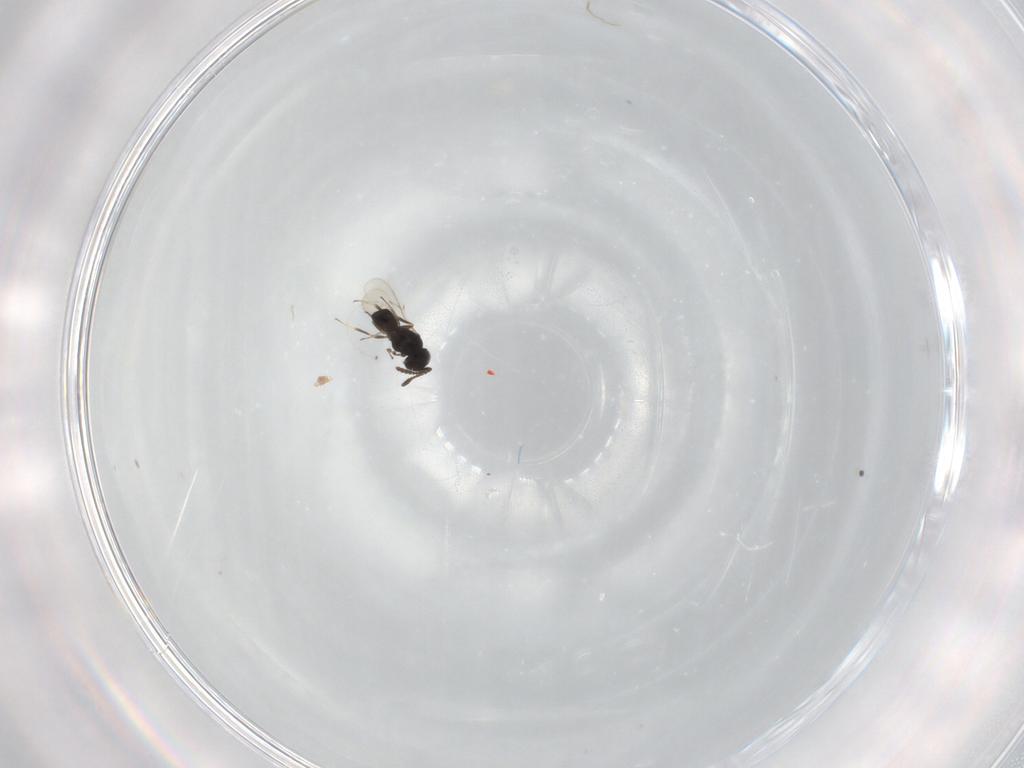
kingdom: Animalia
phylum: Arthropoda
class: Insecta
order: Hymenoptera
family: Scelionidae
